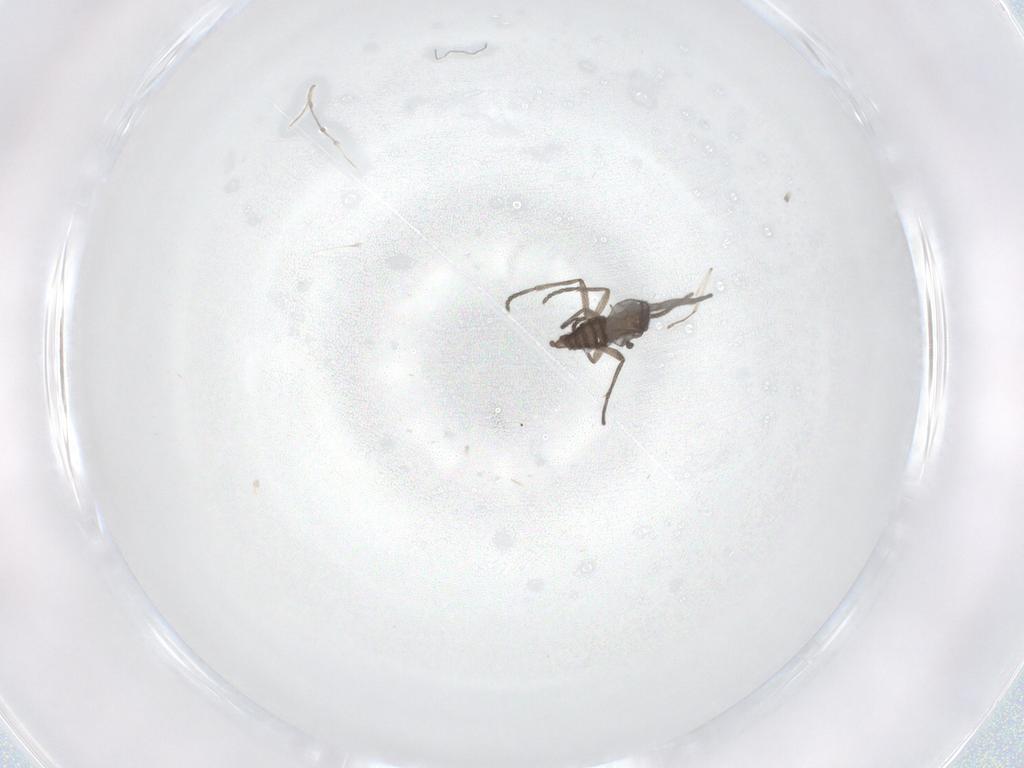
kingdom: Animalia
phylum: Arthropoda
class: Insecta
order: Diptera
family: Sciaridae
